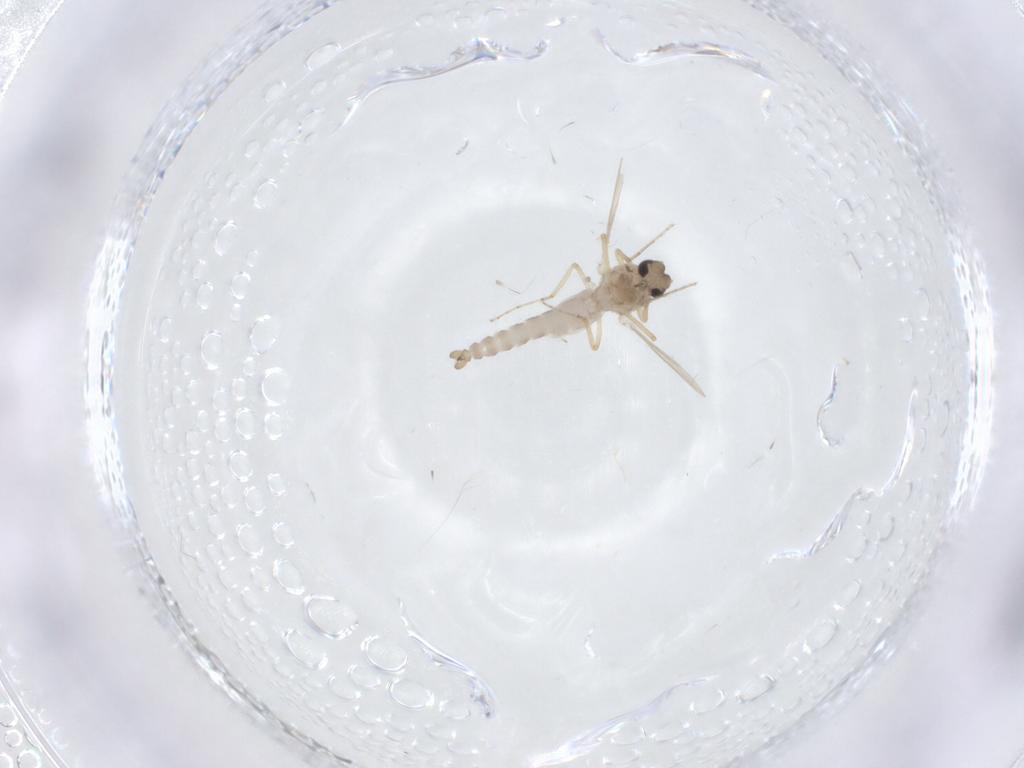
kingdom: Animalia
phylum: Arthropoda
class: Insecta
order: Diptera
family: Ceratopogonidae
